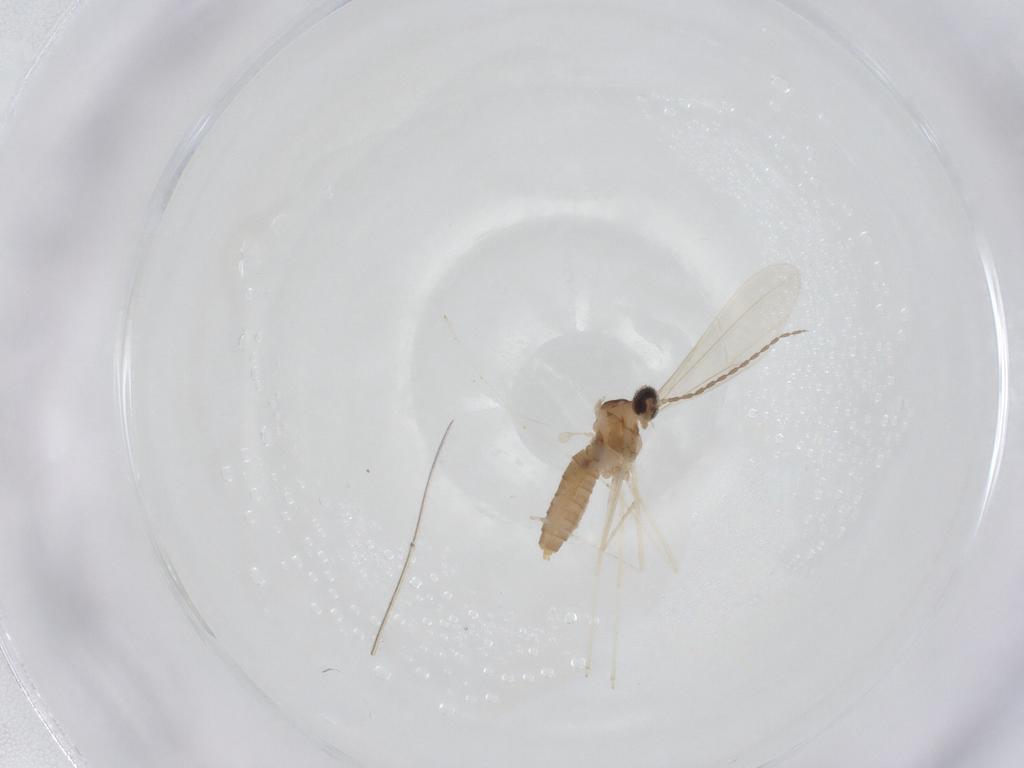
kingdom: Animalia
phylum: Arthropoda
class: Insecta
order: Diptera
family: Cecidomyiidae
